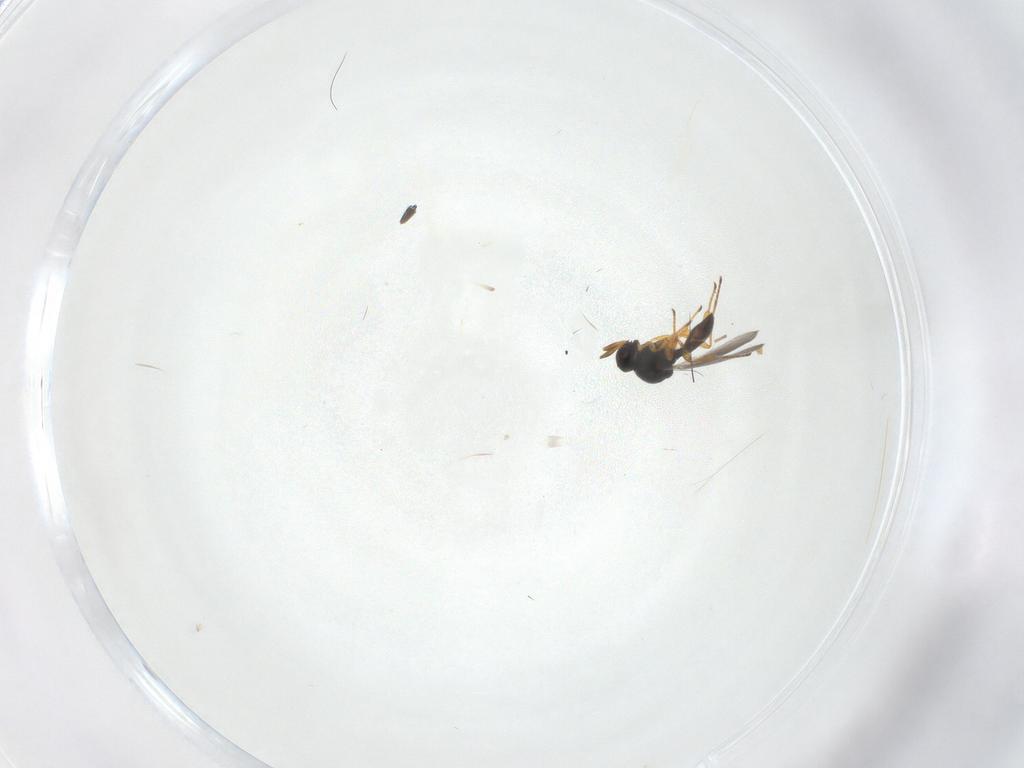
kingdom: Animalia
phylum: Arthropoda
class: Insecta
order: Hymenoptera
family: Platygastridae
